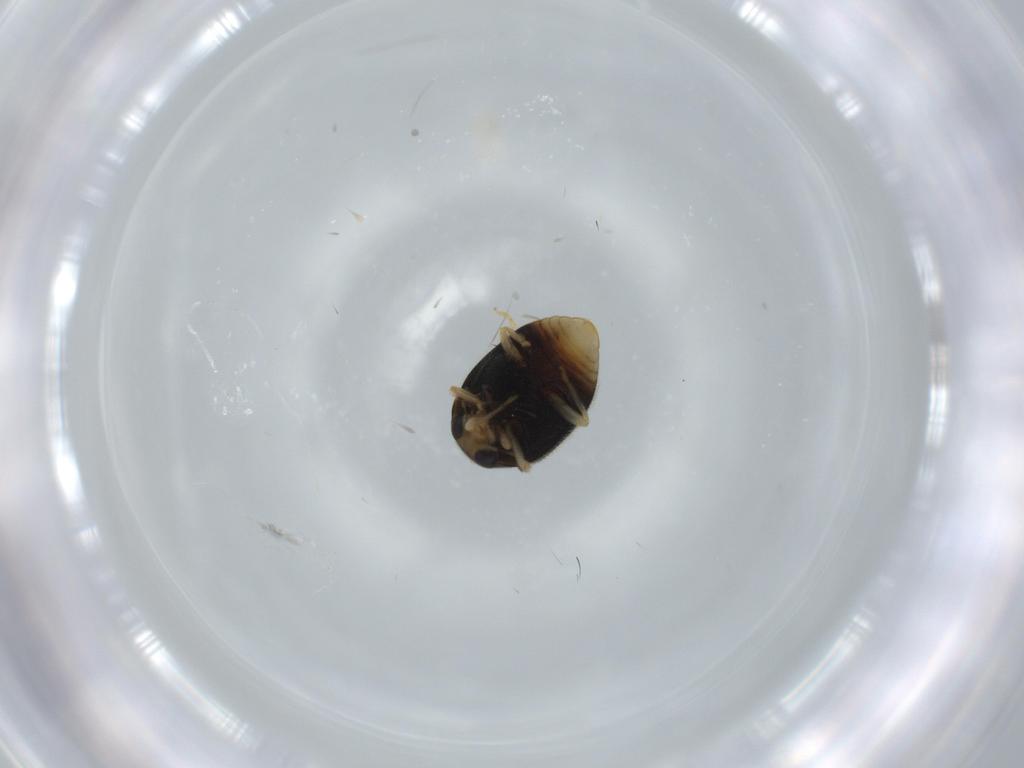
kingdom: Animalia
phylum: Arthropoda
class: Insecta
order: Coleoptera
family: Coccinellidae
